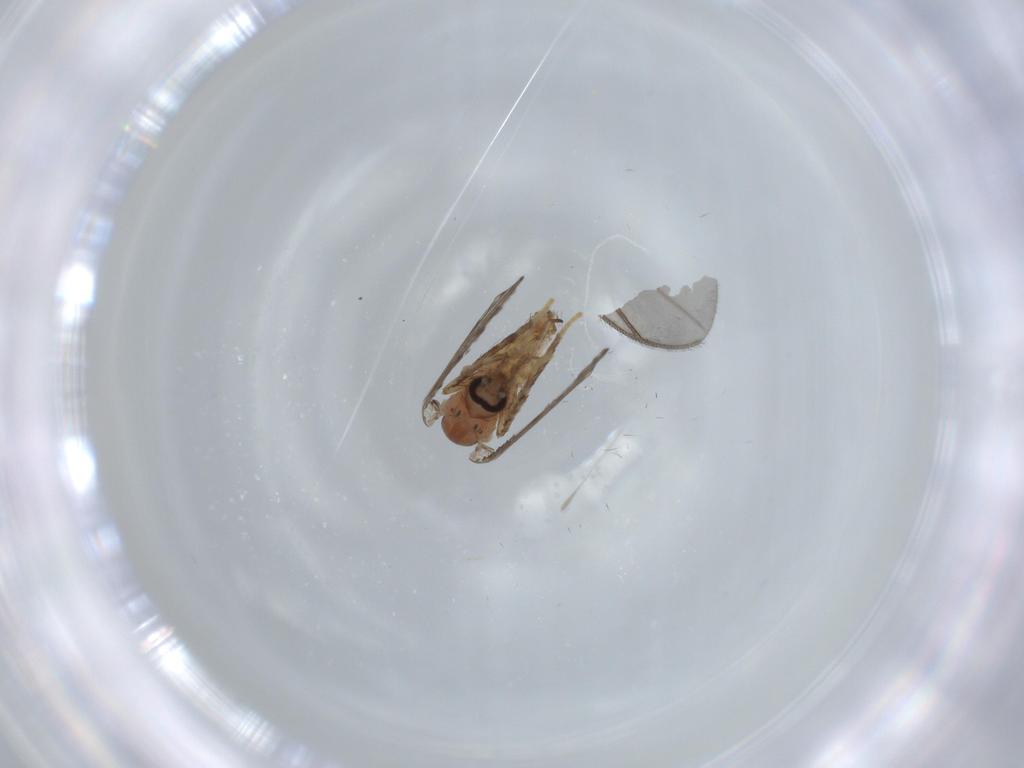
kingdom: Animalia
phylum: Arthropoda
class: Insecta
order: Diptera
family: Psychodidae
